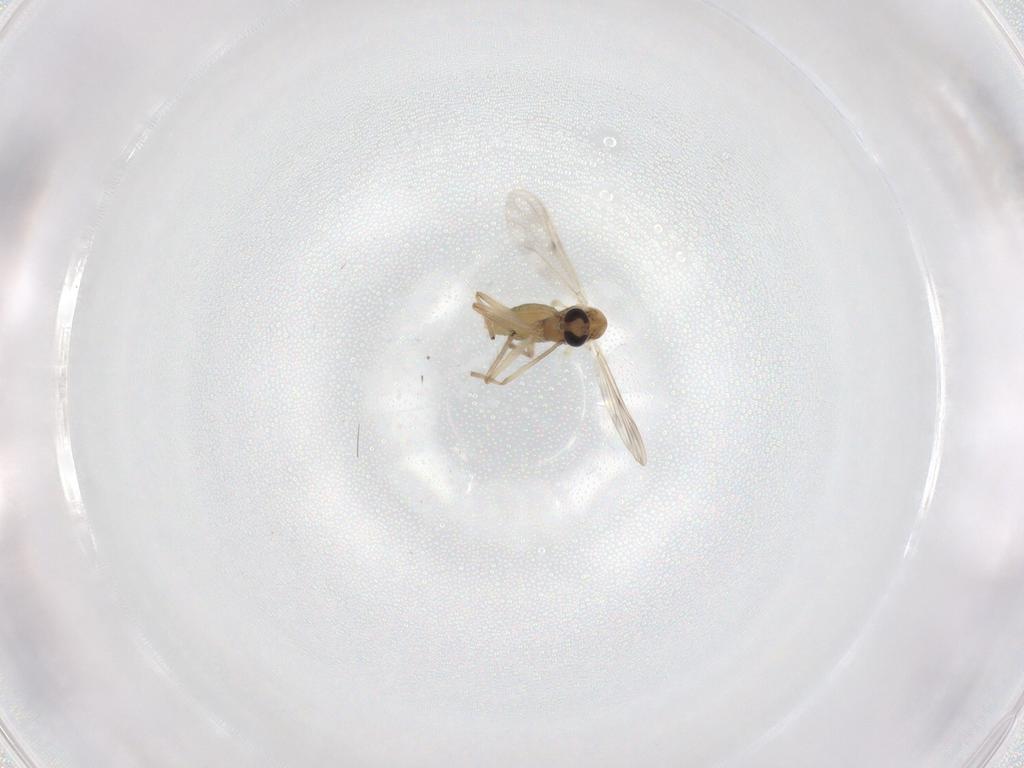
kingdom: Animalia
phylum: Arthropoda
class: Insecta
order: Diptera
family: Chironomidae
